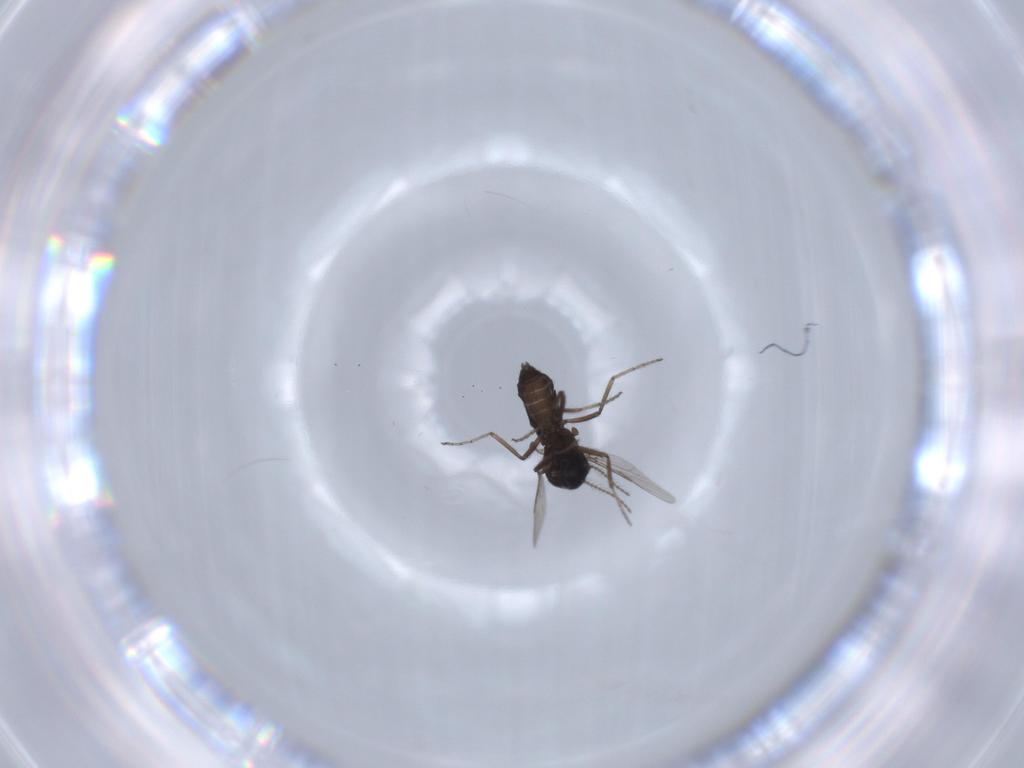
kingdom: Animalia
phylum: Arthropoda
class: Insecta
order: Diptera
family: Ceratopogonidae
